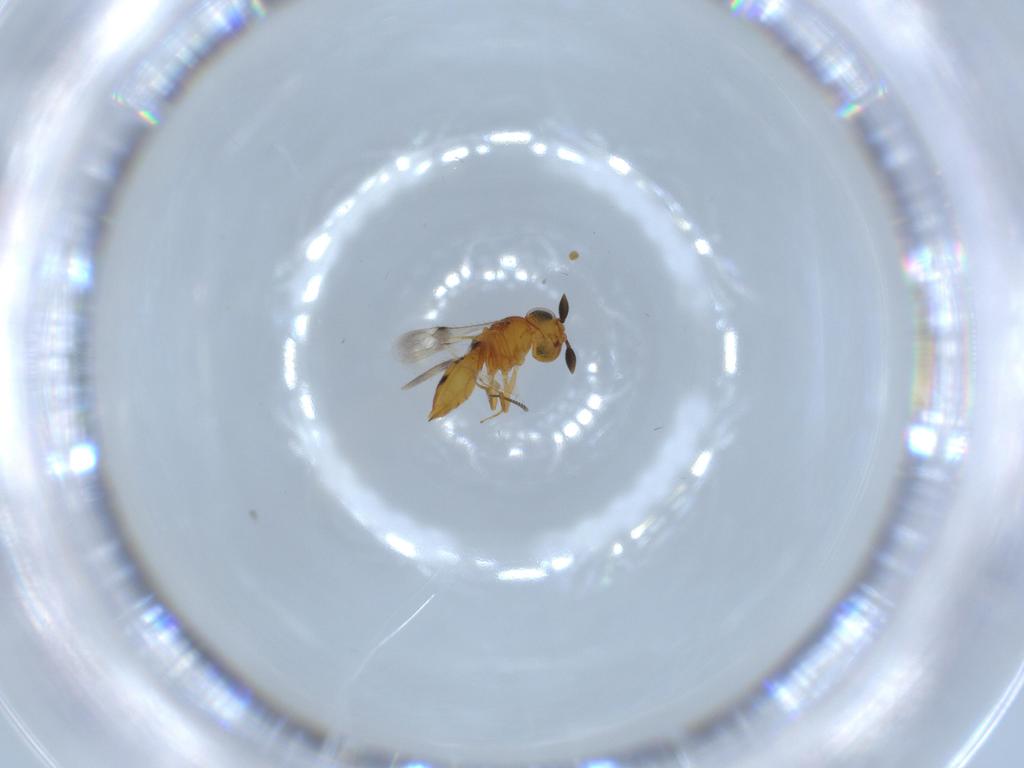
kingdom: Animalia
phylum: Arthropoda
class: Insecta
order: Hymenoptera
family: Scelionidae
